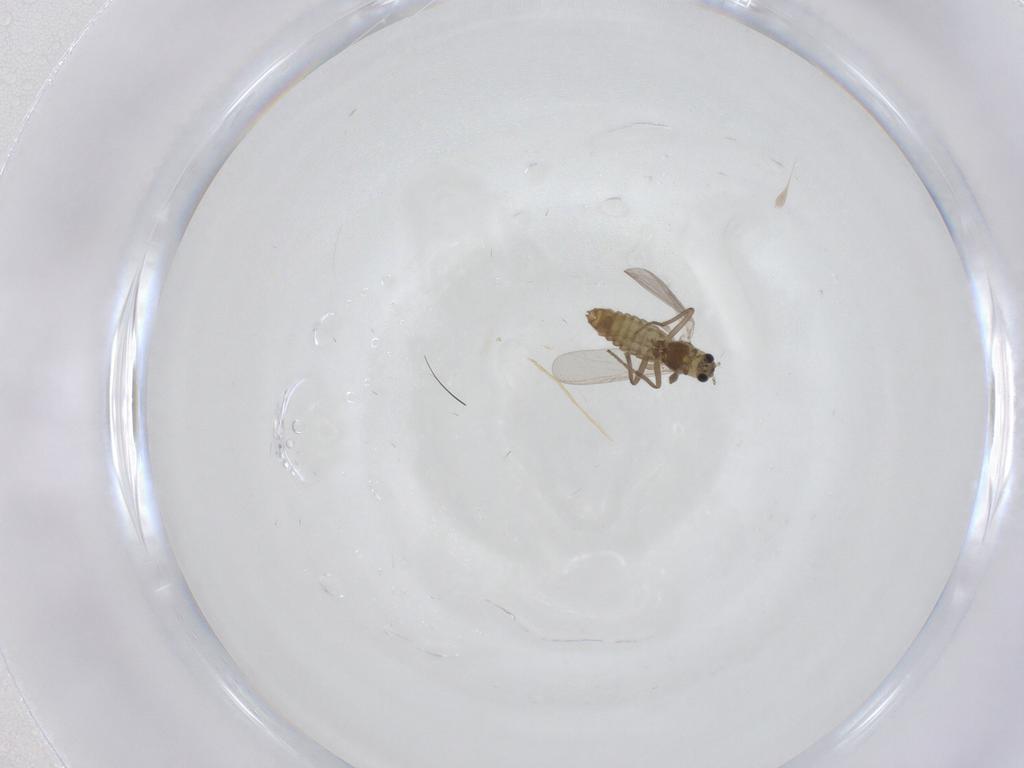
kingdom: Animalia
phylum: Arthropoda
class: Insecta
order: Diptera
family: Chironomidae
